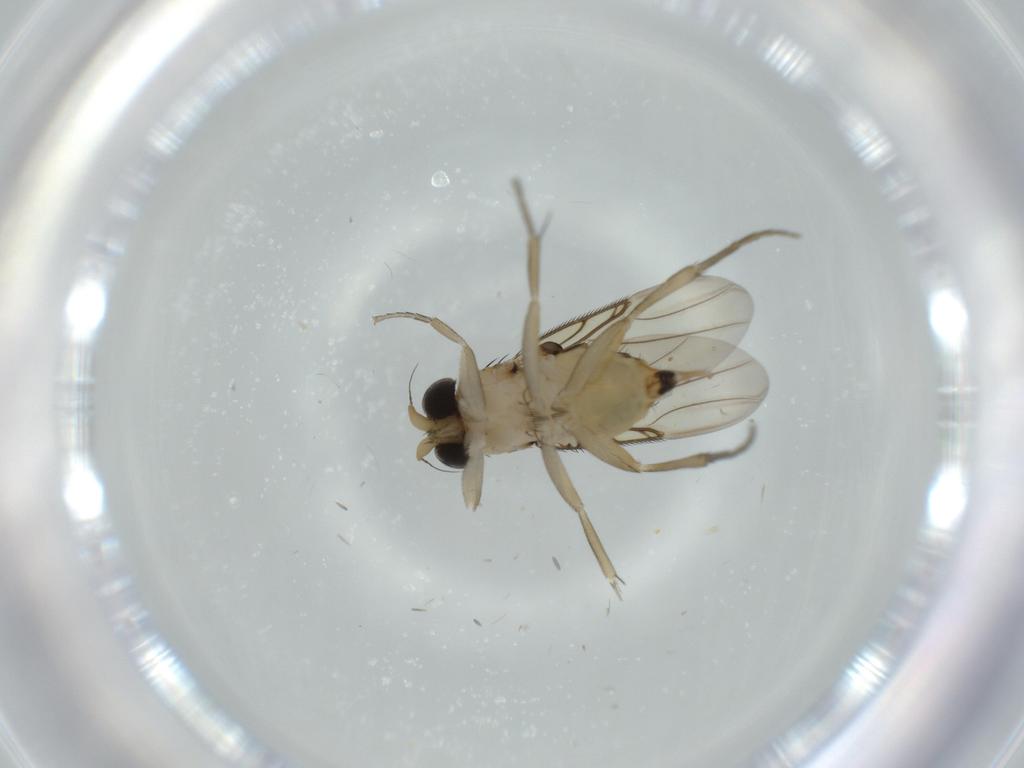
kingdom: Animalia
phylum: Arthropoda
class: Insecta
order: Diptera
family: Phoridae
